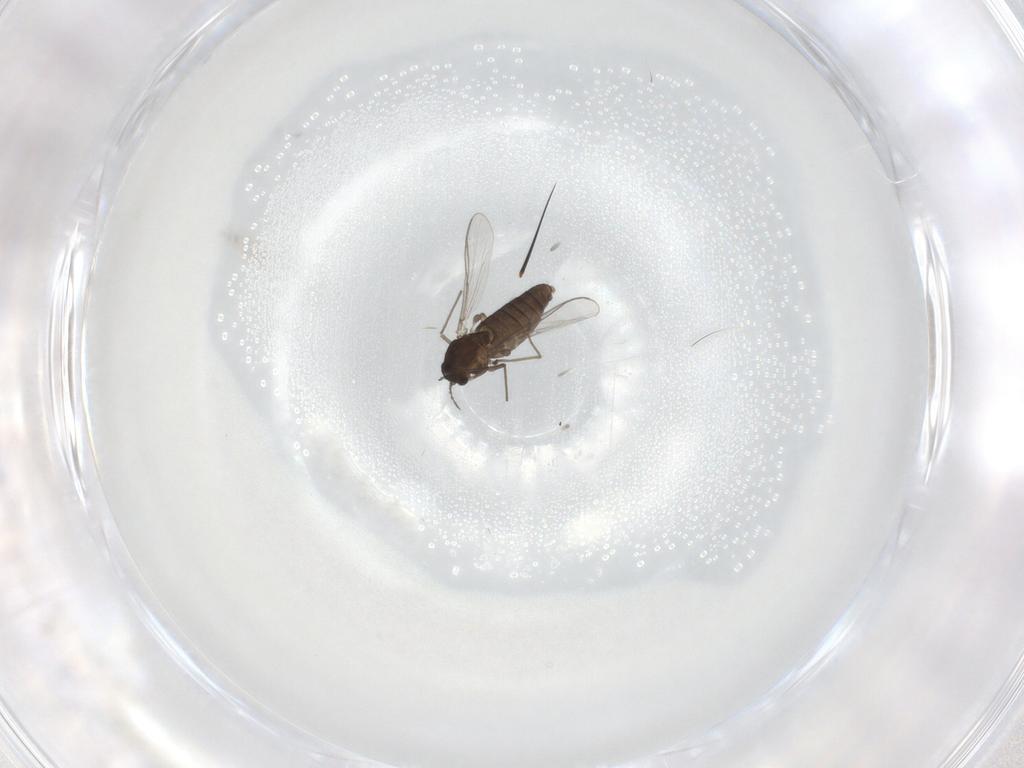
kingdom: Animalia
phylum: Arthropoda
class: Insecta
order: Diptera
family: Chironomidae
